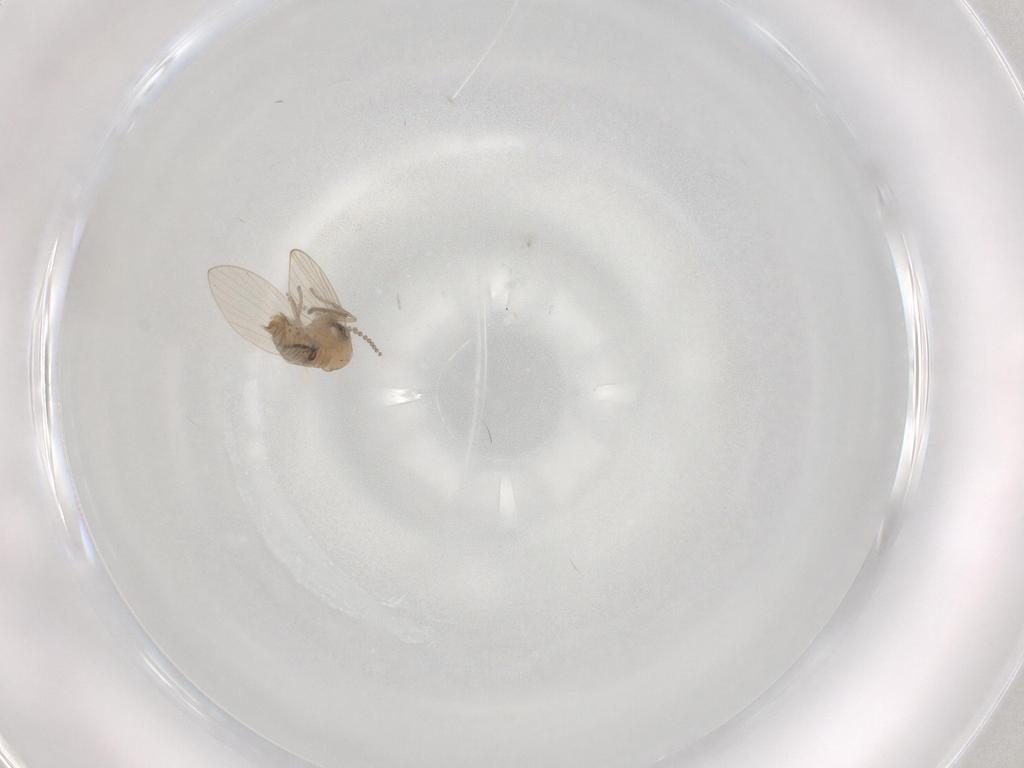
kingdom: Animalia
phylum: Arthropoda
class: Insecta
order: Diptera
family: Psychodidae
